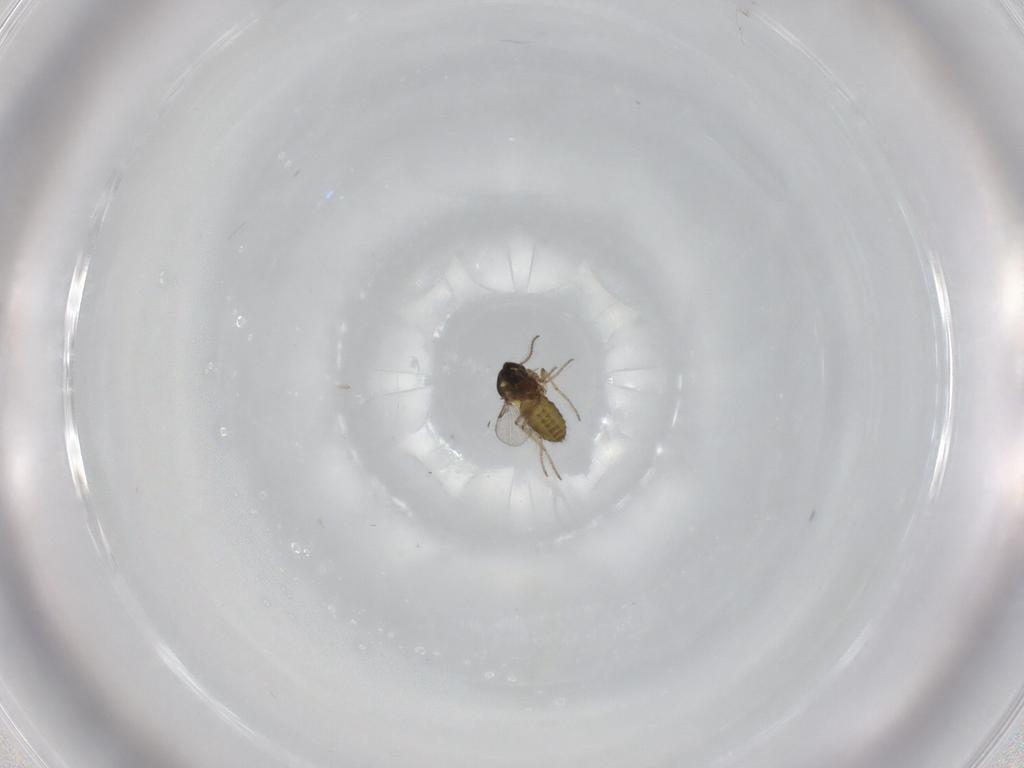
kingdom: Animalia
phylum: Arthropoda
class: Insecta
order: Diptera
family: Ceratopogonidae
